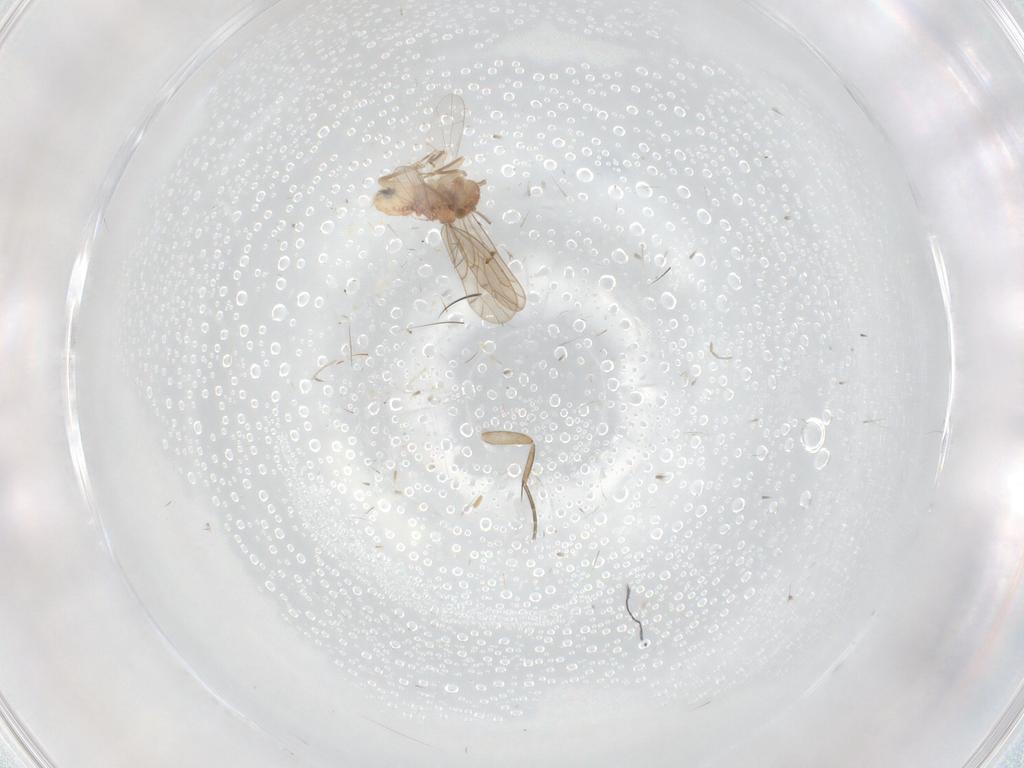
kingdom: Animalia
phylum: Arthropoda
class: Insecta
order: Psocodea
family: Ectopsocidae
